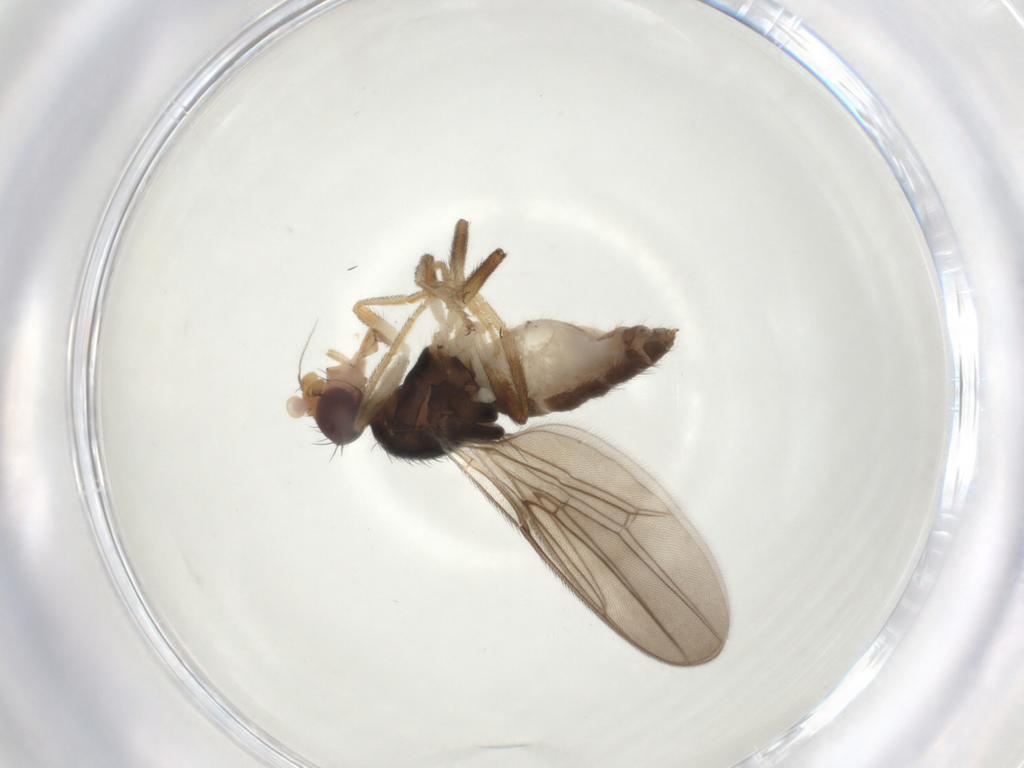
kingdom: Animalia
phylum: Arthropoda
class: Insecta
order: Diptera
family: Chloropidae
